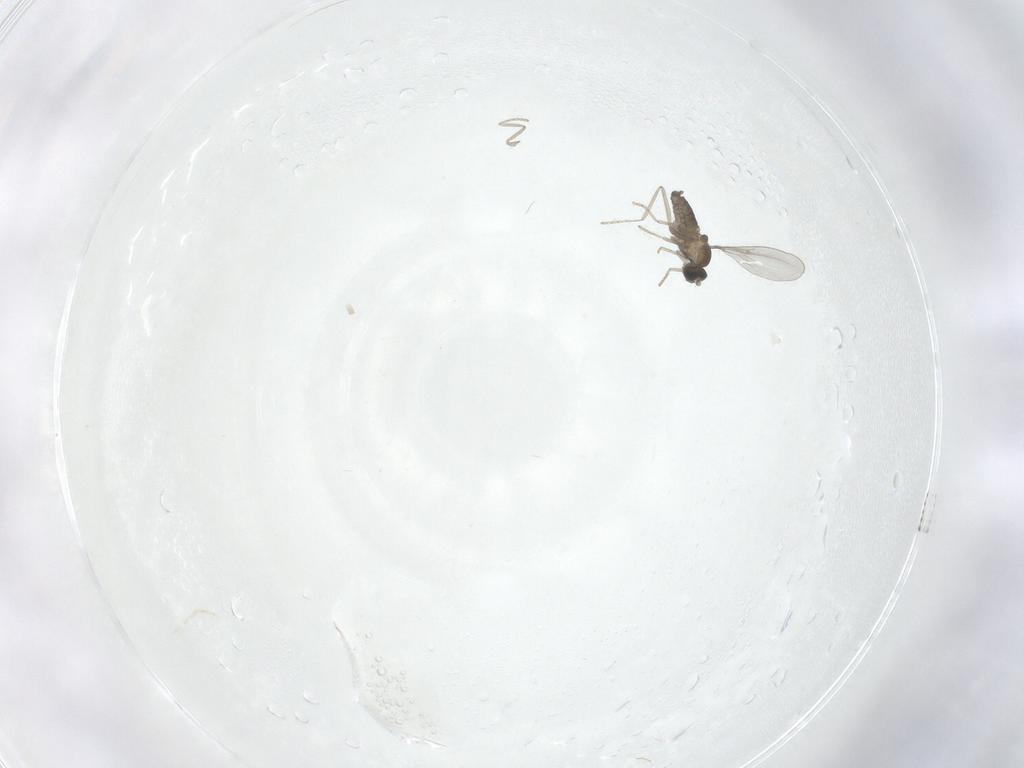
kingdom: Animalia
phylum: Arthropoda
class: Insecta
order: Diptera
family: Cecidomyiidae
